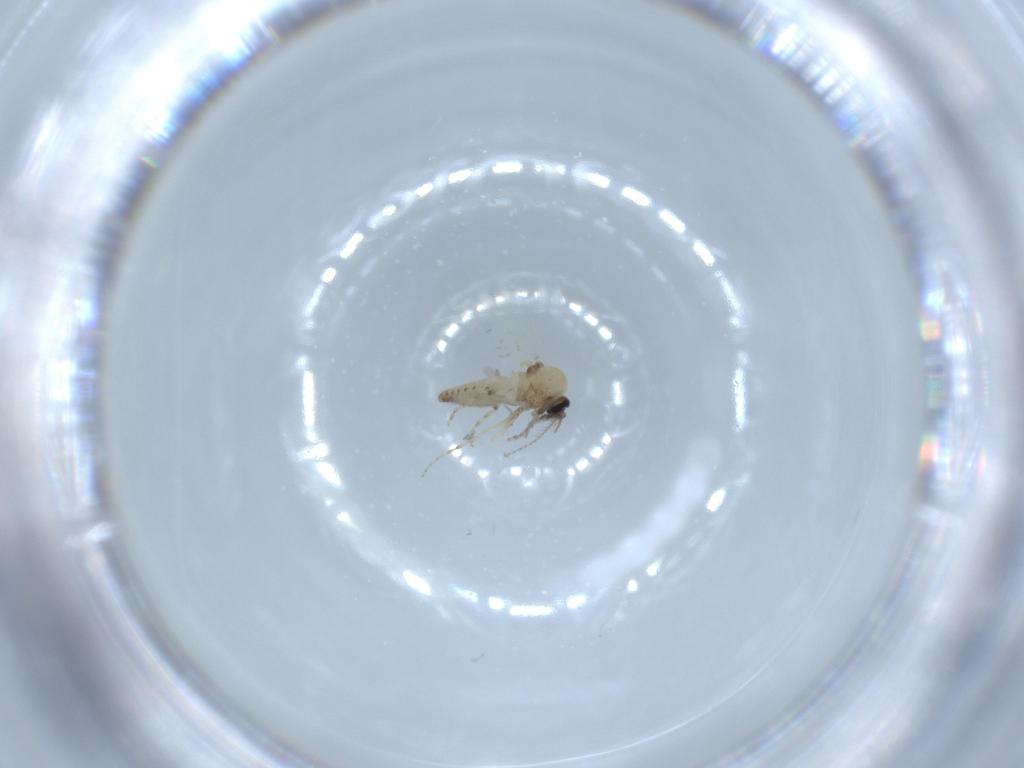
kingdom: Animalia
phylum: Arthropoda
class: Insecta
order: Diptera
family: Ceratopogonidae
